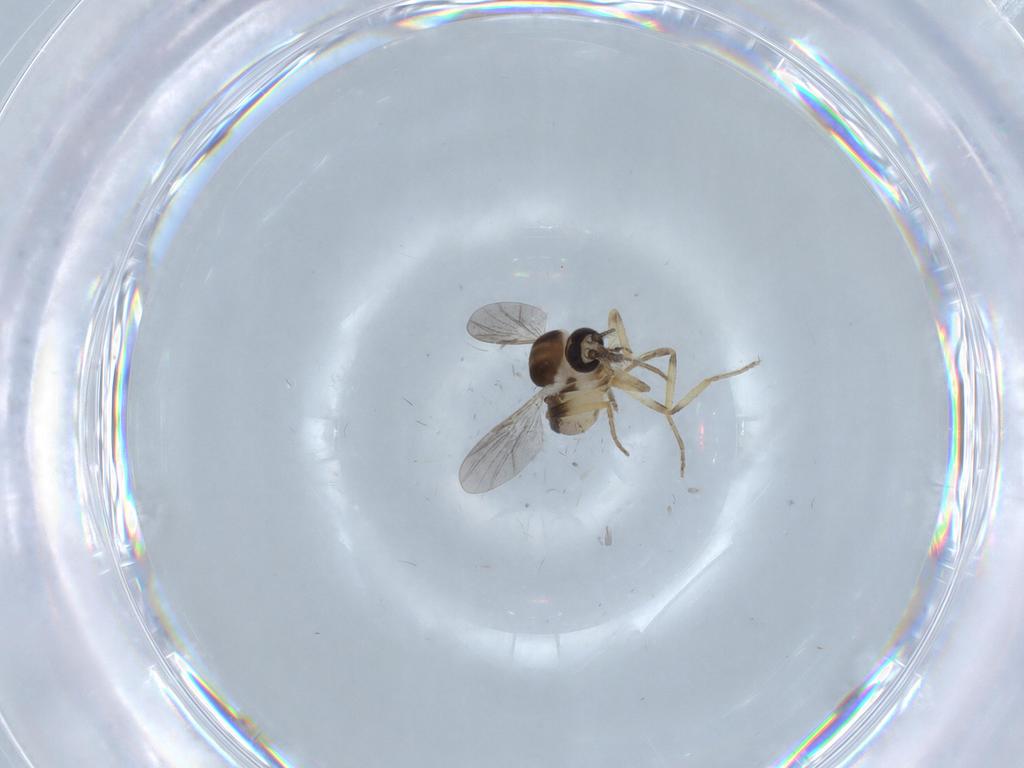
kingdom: Animalia
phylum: Arthropoda
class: Insecta
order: Diptera
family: Ceratopogonidae
